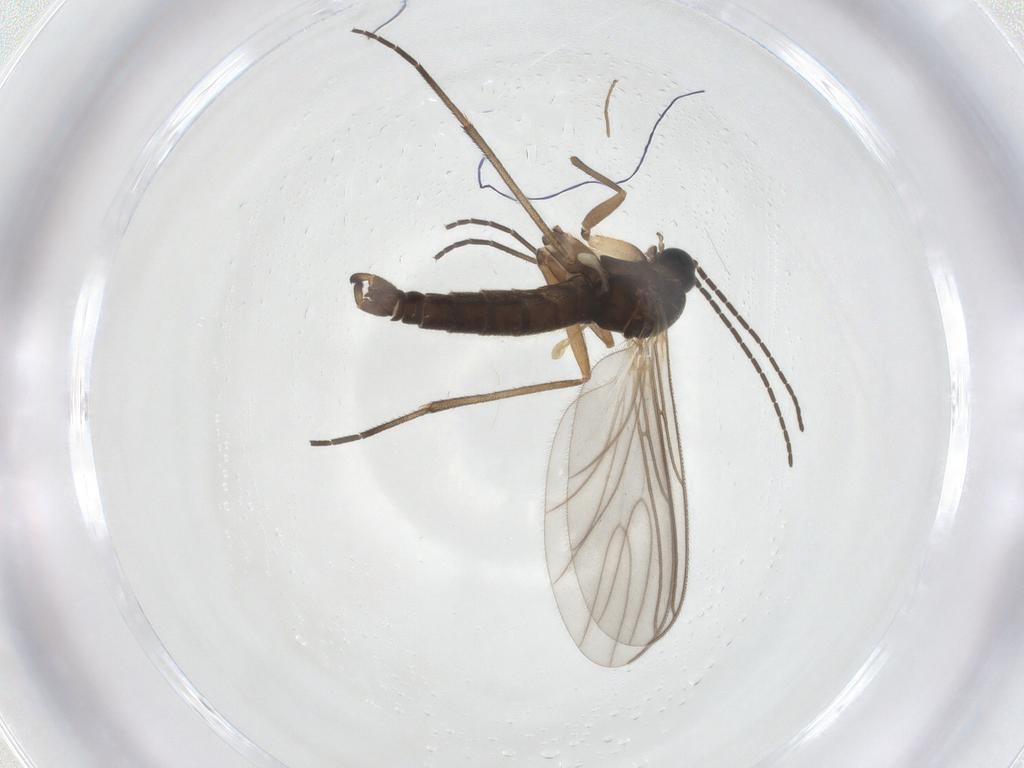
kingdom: Animalia
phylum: Arthropoda
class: Insecta
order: Diptera
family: Sciaridae
